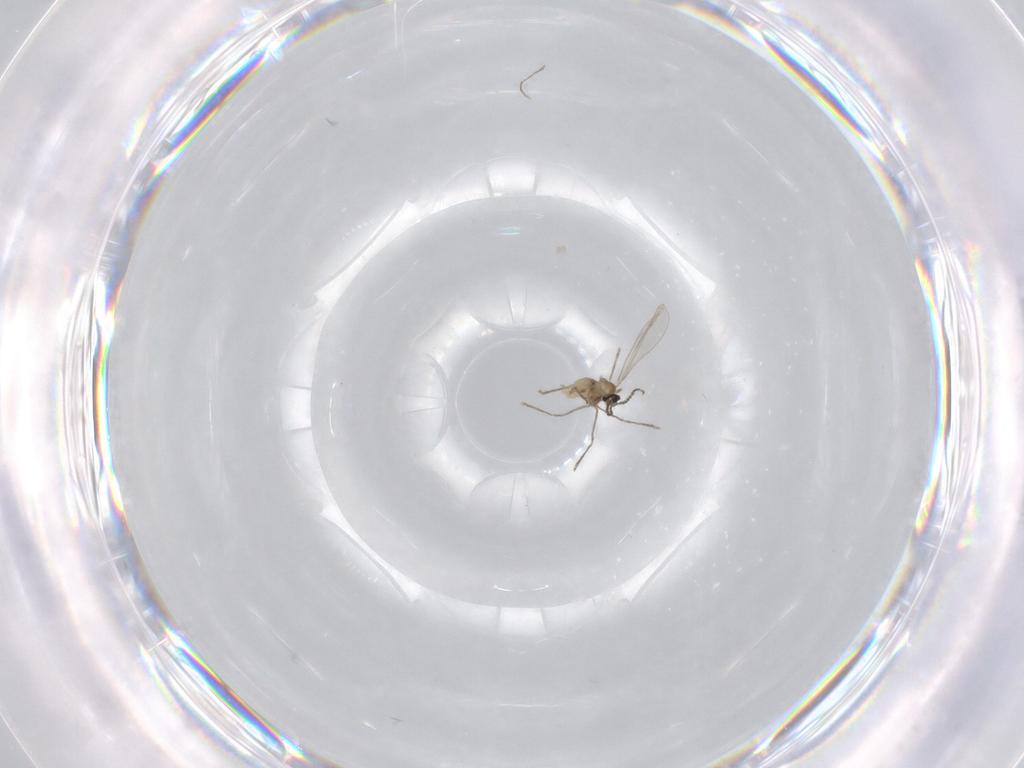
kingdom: Animalia
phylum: Arthropoda
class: Insecta
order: Diptera
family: Cecidomyiidae
